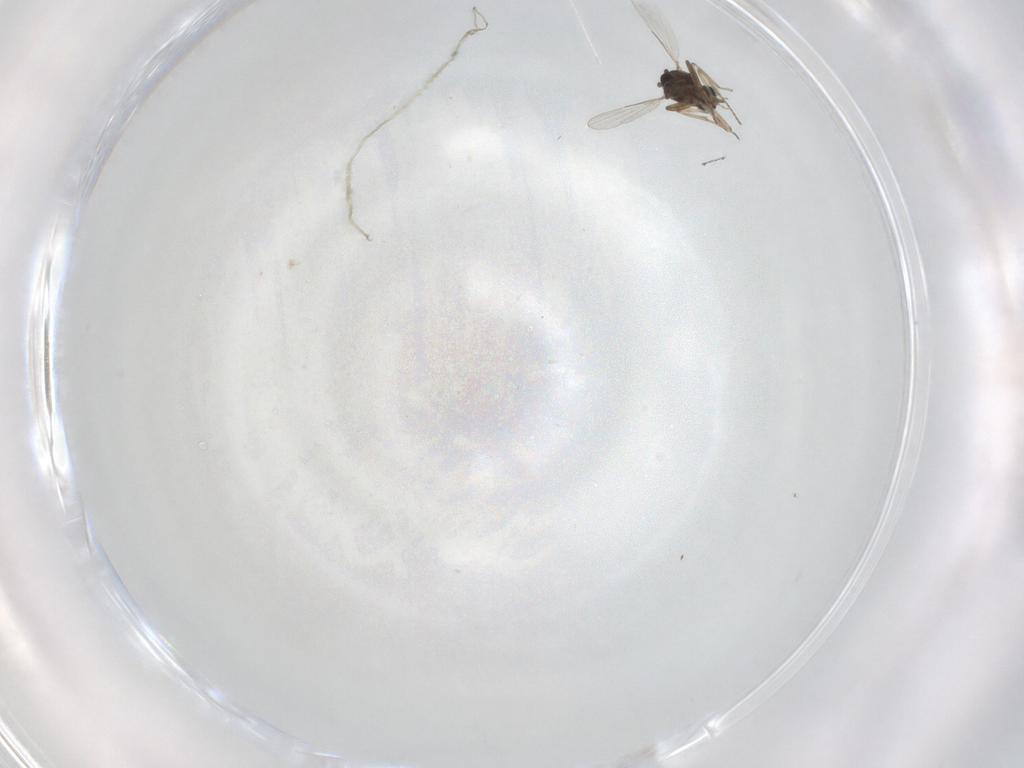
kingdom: Animalia
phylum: Arthropoda
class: Insecta
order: Diptera
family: Ceratopogonidae
